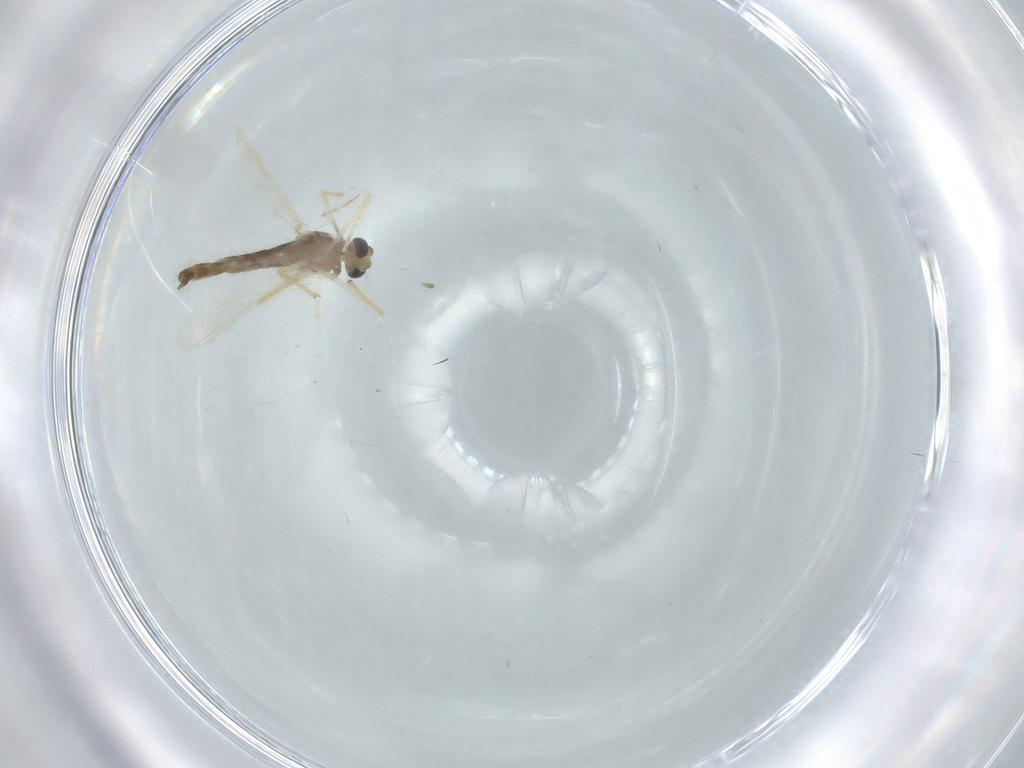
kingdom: Animalia
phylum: Arthropoda
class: Insecta
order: Diptera
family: Chironomidae
